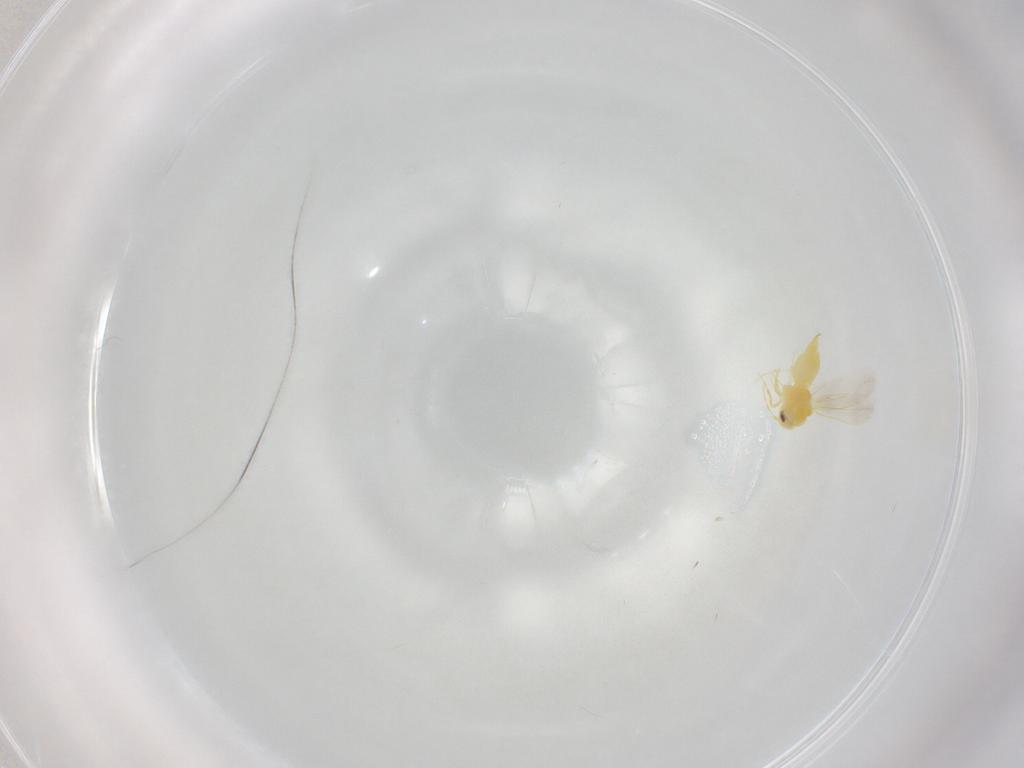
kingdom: Animalia
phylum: Arthropoda
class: Insecta
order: Hemiptera
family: Aleyrodidae
